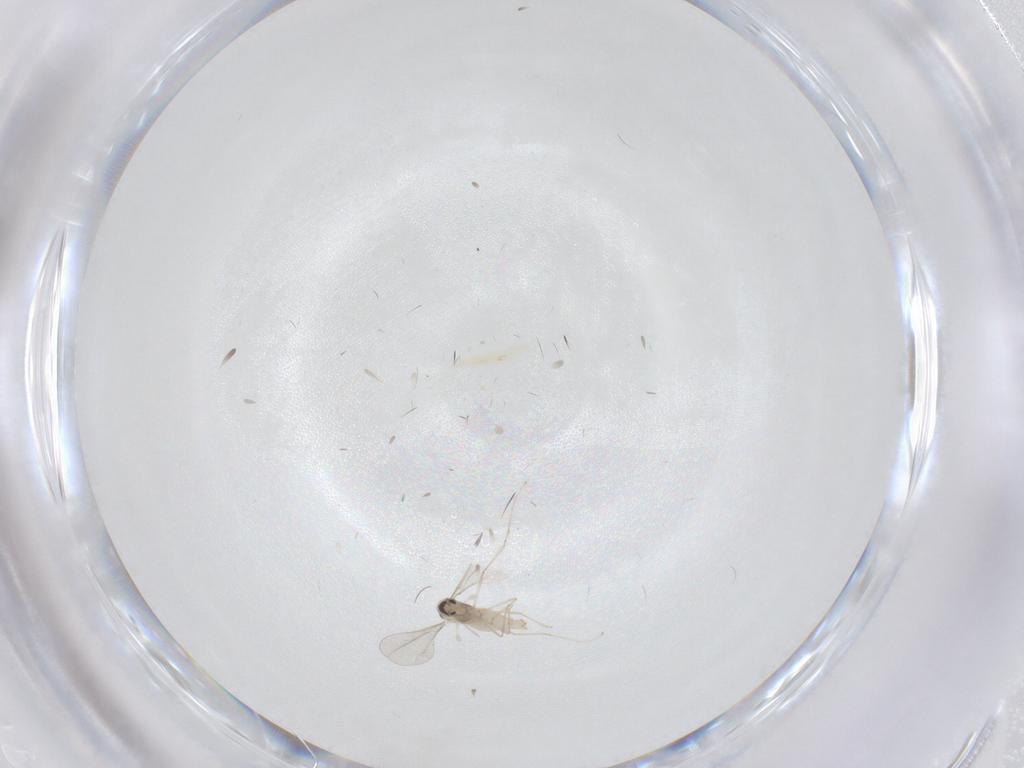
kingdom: Animalia
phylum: Arthropoda
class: Insecta
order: Diptera
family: Cecidomyiidae
